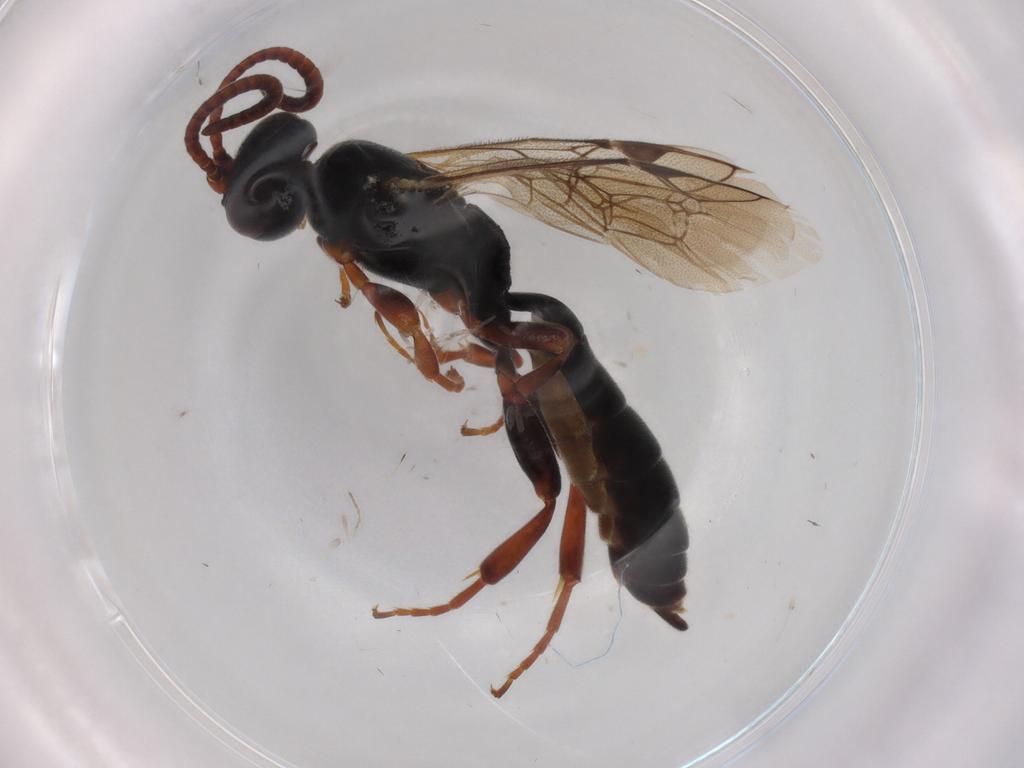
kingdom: Animalia
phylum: Arthropoda
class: Insecta
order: Hymenoptera
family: Ichneumonidae
